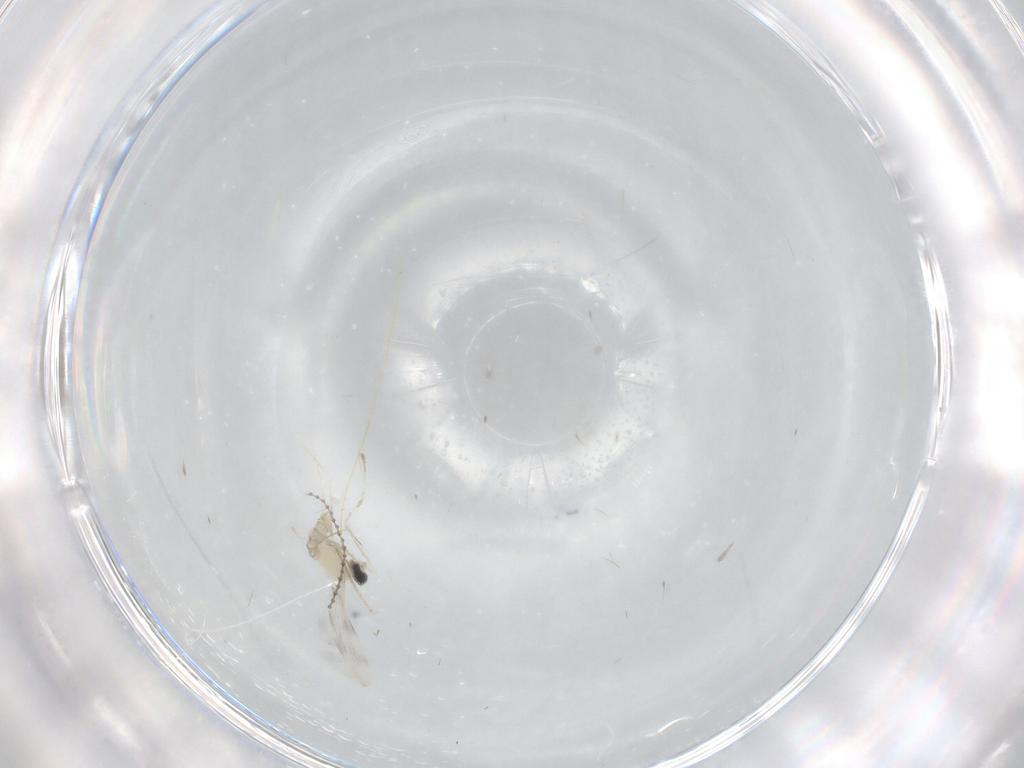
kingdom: Animalia
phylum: Arthropoda
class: Insecta
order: Diptera
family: Cecidomyiidae
